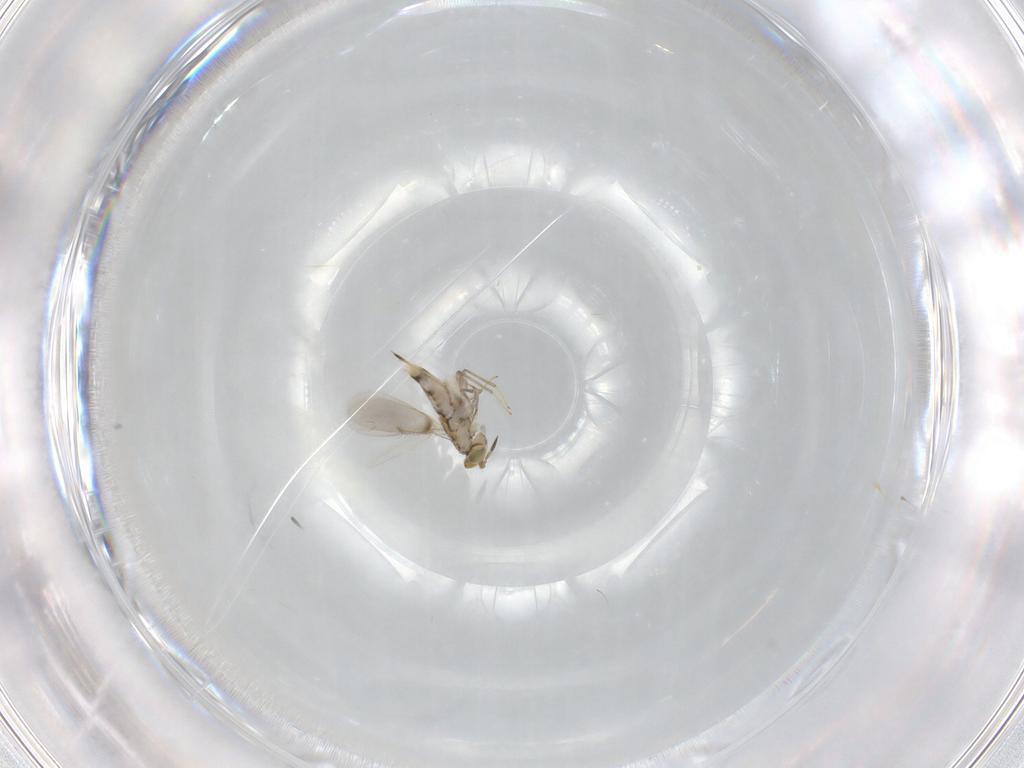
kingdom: Animalia
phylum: Arthropoda
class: Insecta
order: Hymenoptera
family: Aphelinidae
